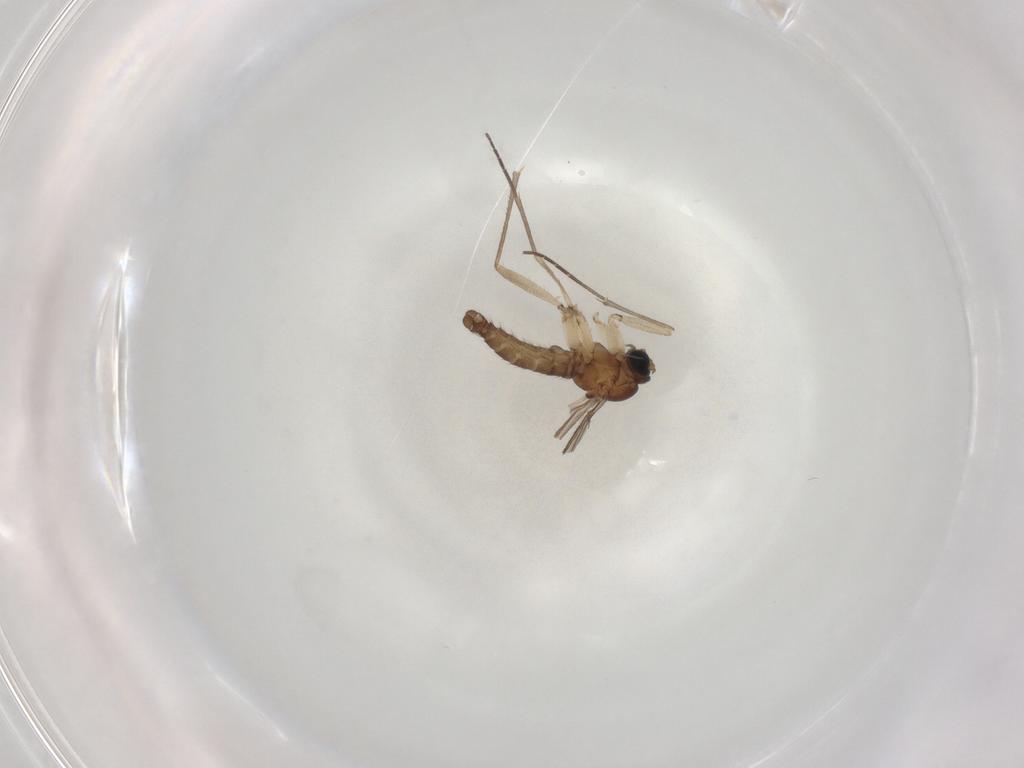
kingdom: Animalia
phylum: Arthropoda
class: Insecta
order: Diptera
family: Sciaridae
